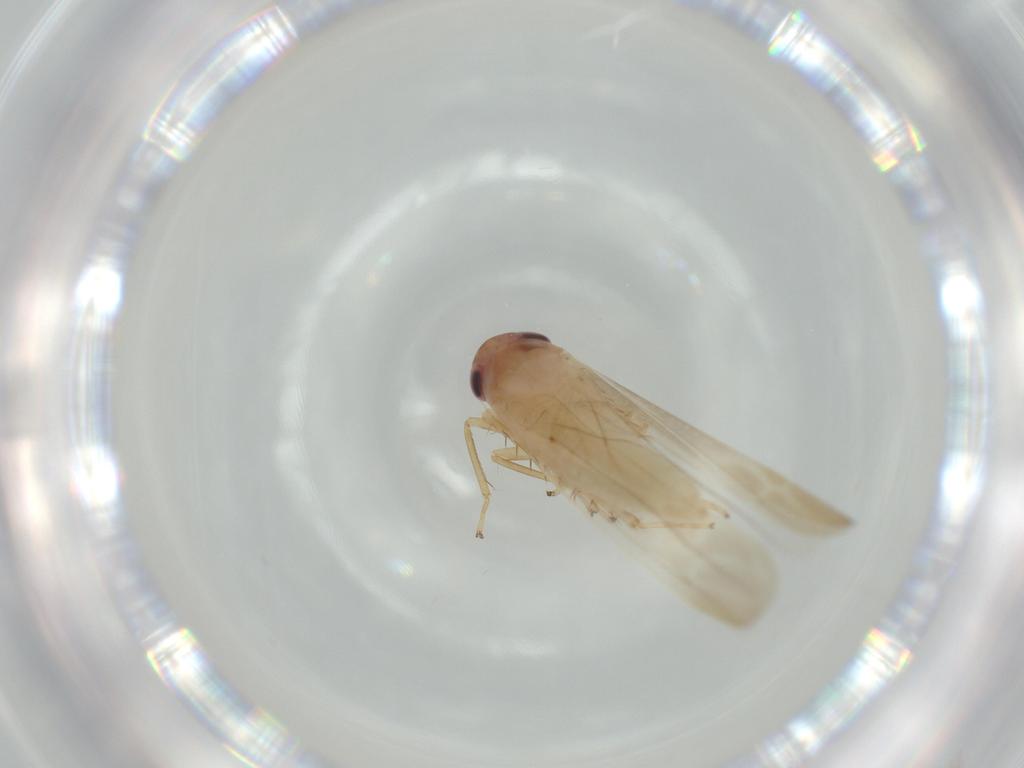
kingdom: Animalia
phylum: Arthropoda
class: Insecta
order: Hemiptera
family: Cicadellidae
